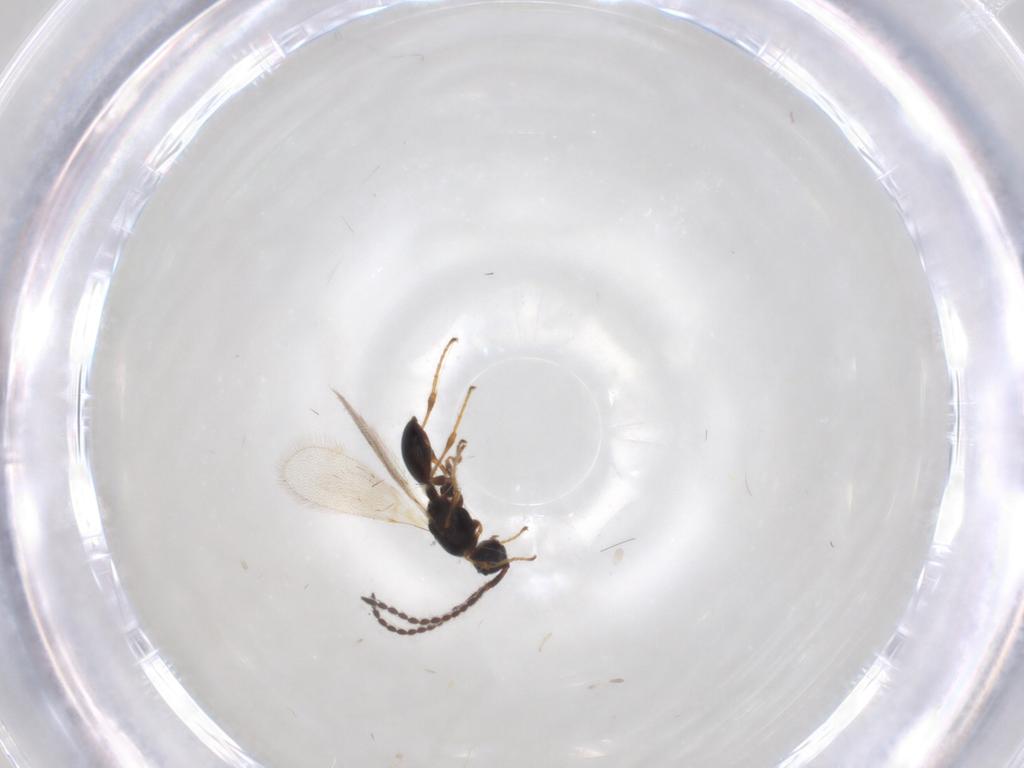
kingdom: Animalia
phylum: Arthropoda
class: Insecta
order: Hymenoptera
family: Diapriidae
